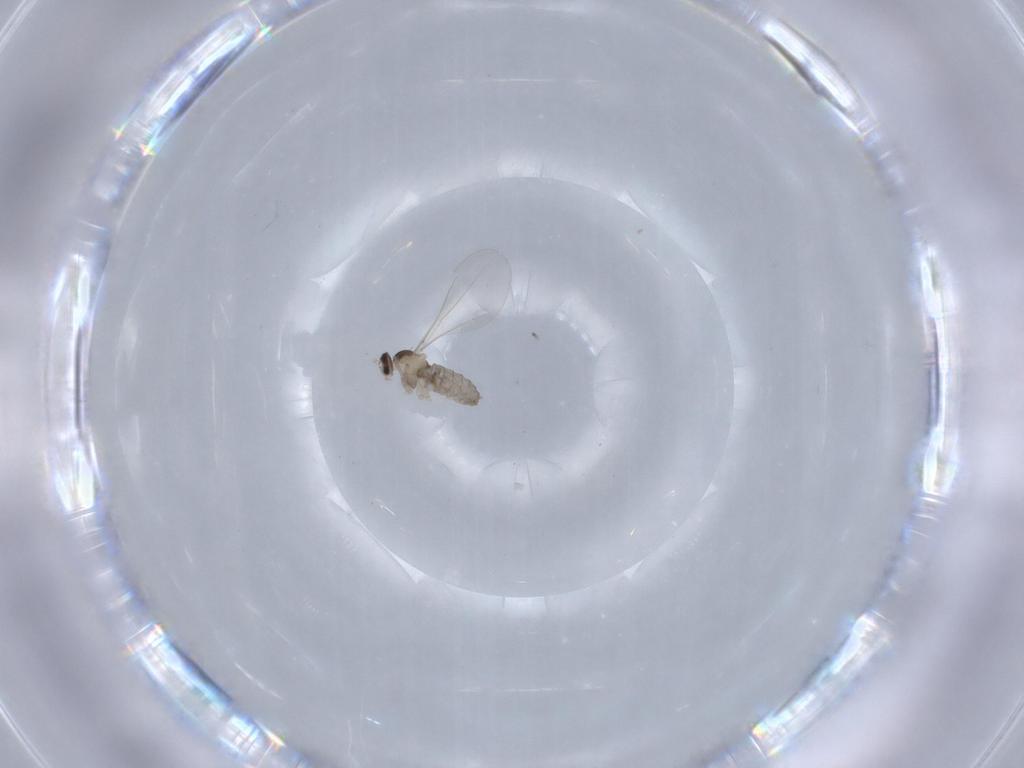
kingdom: Animalia
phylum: Arthropoda
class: Insecta
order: Diptera
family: Cecidomyiidae
